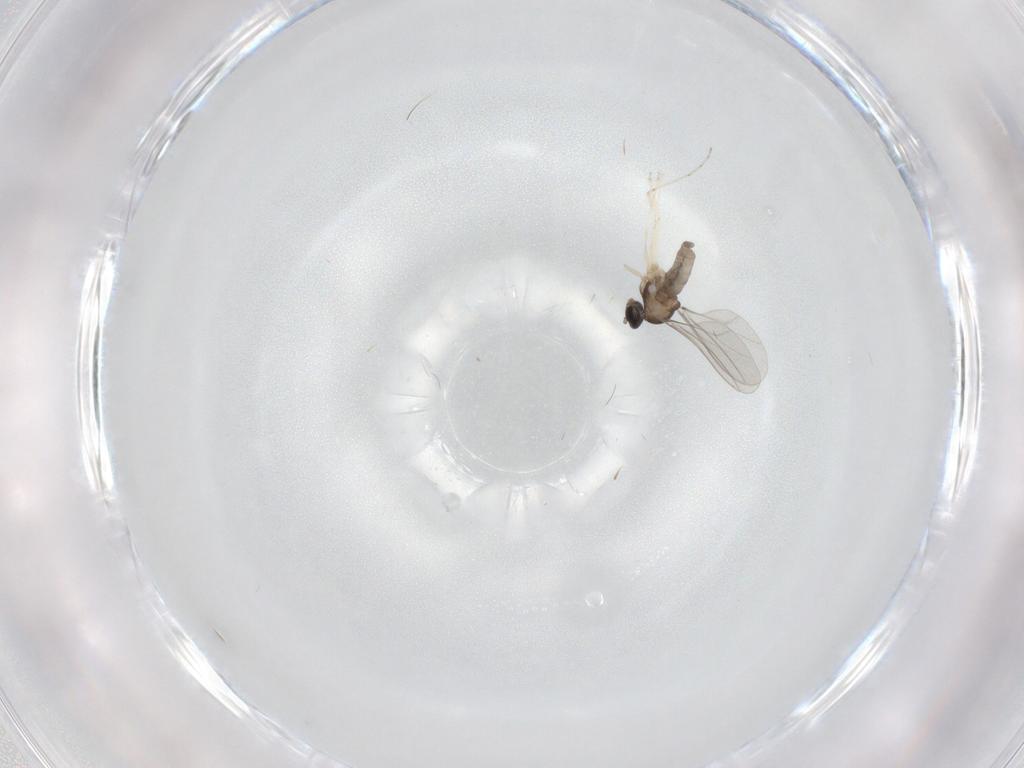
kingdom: Animalia
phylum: Arthropoda
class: Insecta
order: Diptera
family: Cecidomyiidae
